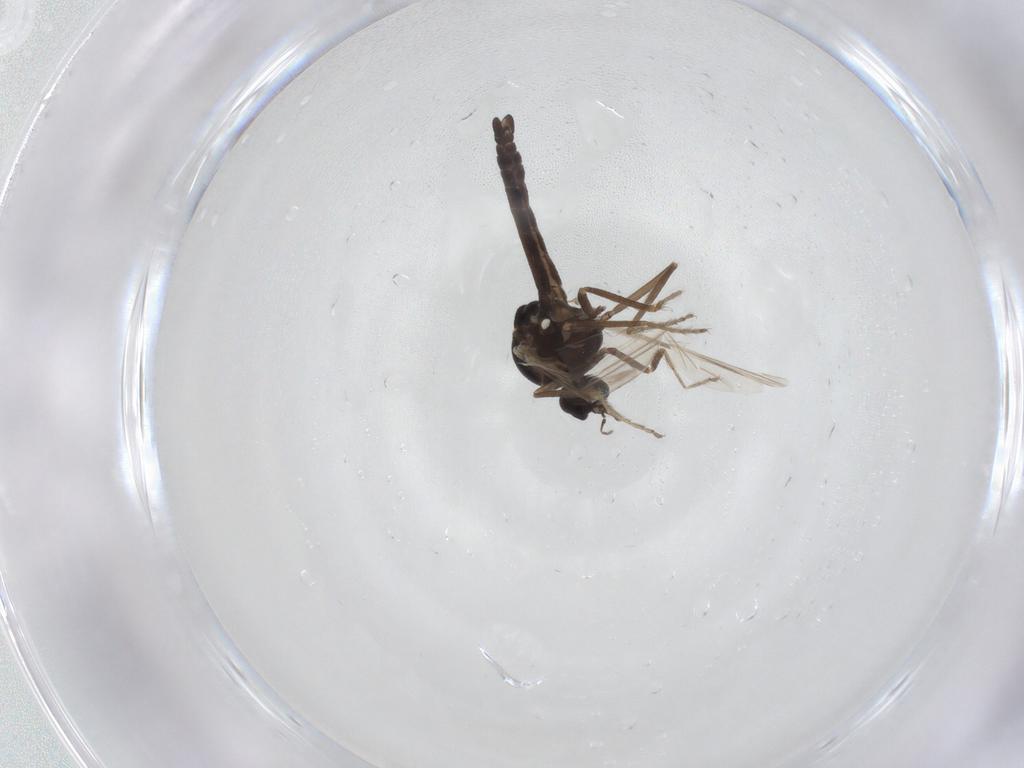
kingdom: Animalia
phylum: Arthropoda
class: Insecta
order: Diptera
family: Ceratopogonidae
